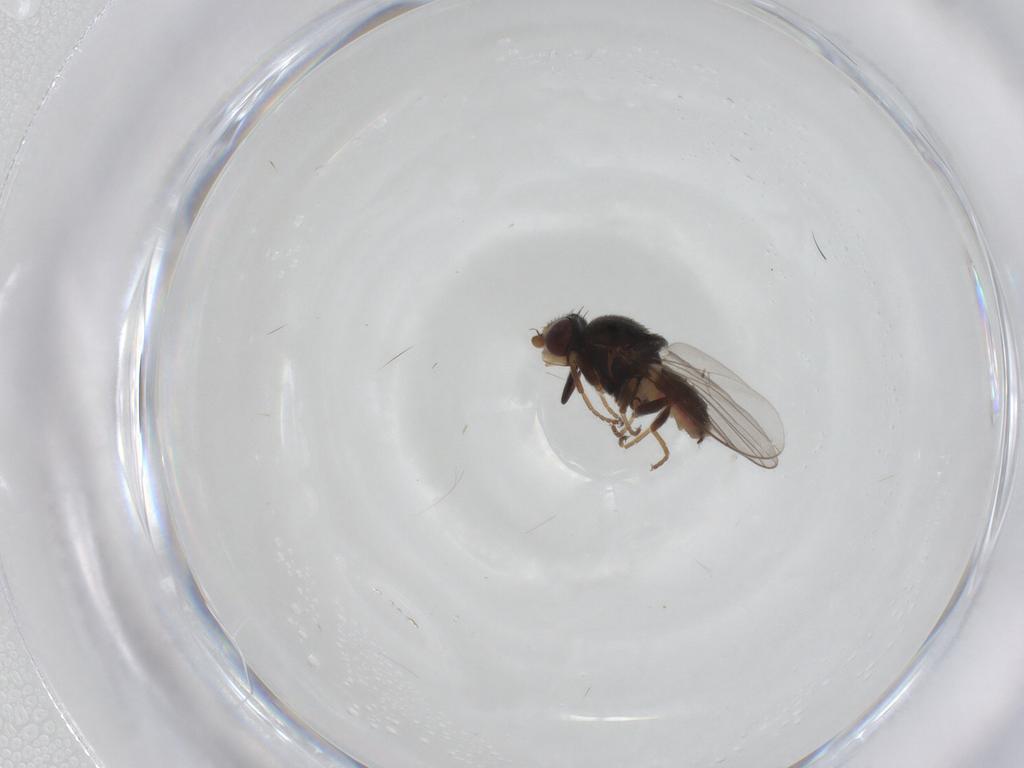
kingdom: Animalia
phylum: Arthropoda
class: Insecta
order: Diptera
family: Chloropidae
